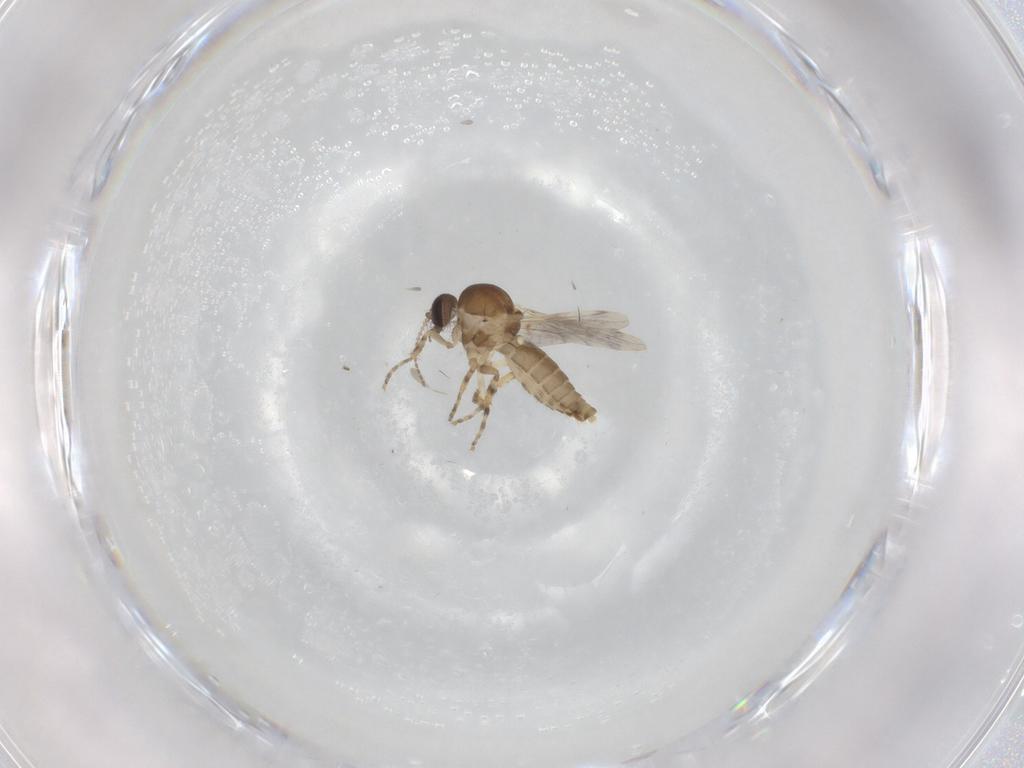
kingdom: Animalia
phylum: Arthropoda
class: Insecta
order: Diptera
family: Ceratopogonidae
